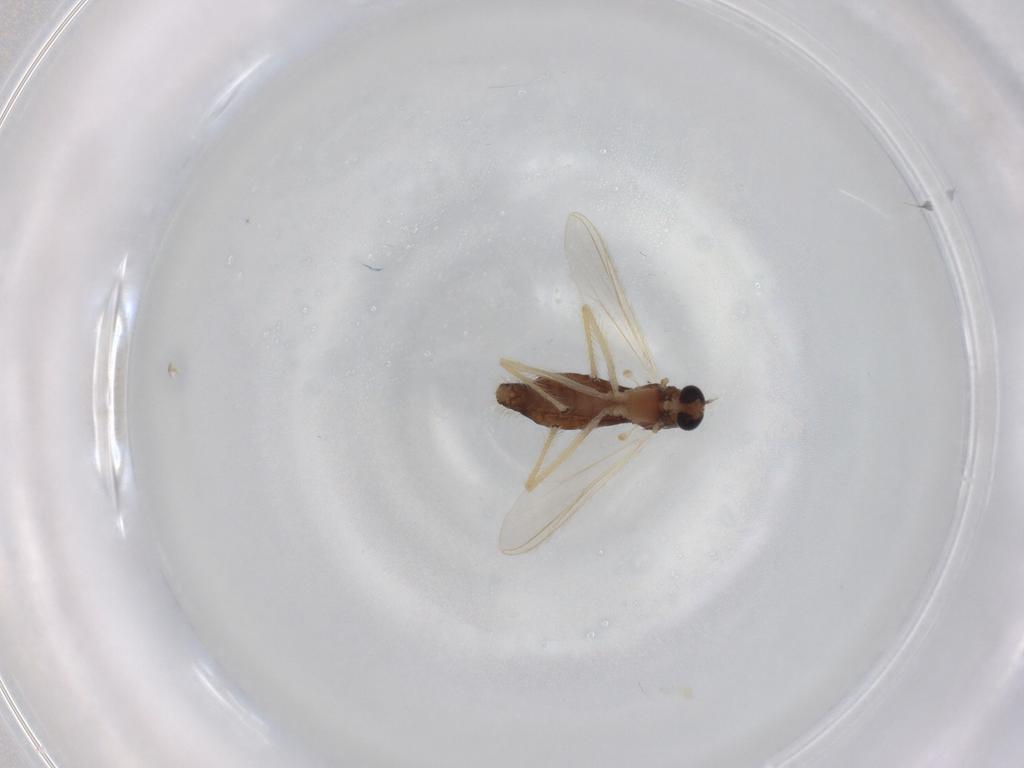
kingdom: Animalia
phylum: Arthropoda
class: Insecta
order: Diptera
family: Chironomidae
